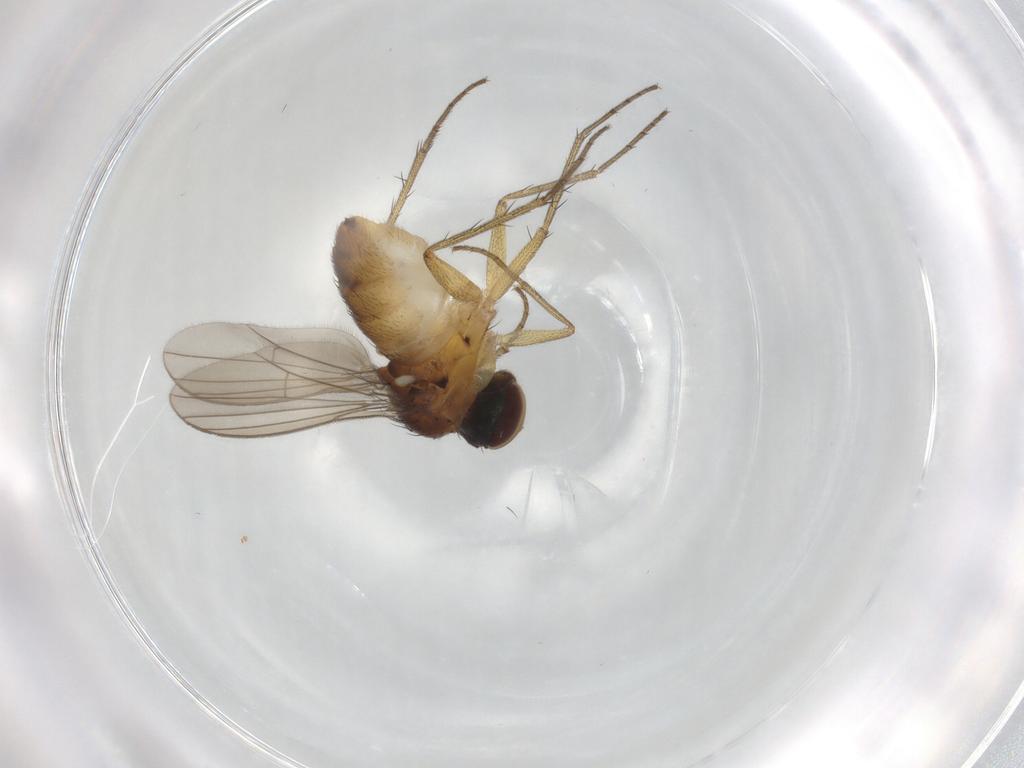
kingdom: Animalia
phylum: Arthropoda
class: Insecta
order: Diptera
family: Dolichopodidae
